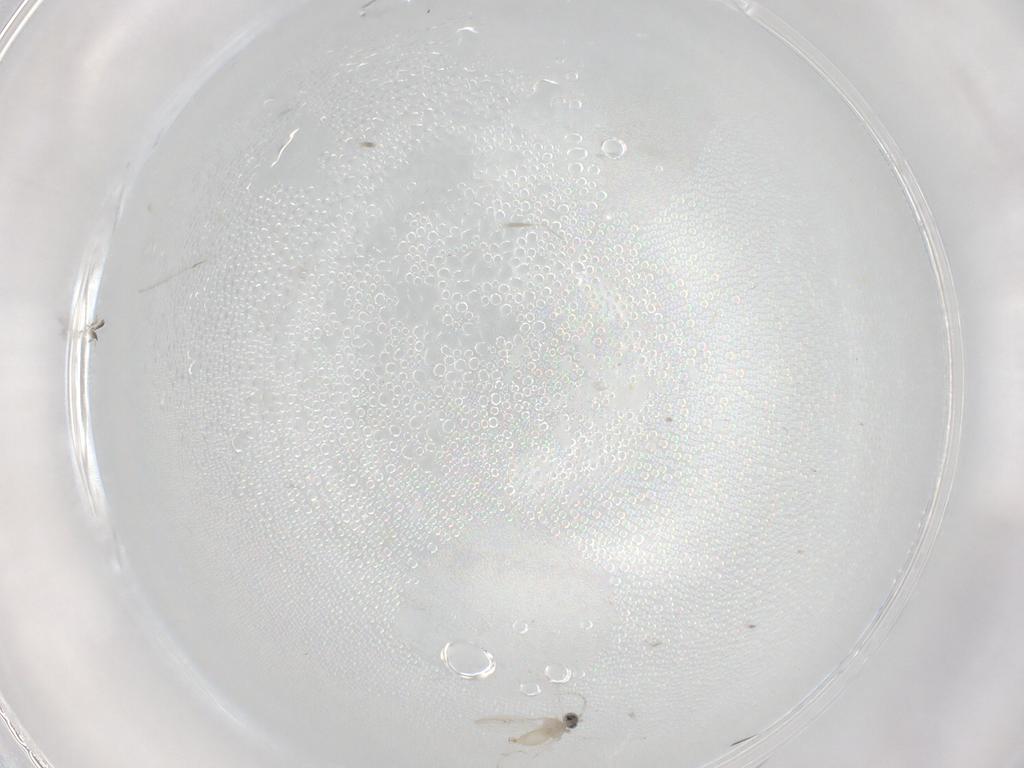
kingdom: Animalia
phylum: Arthropoda
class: Insecta
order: Diptera
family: Cecidomyiidae
